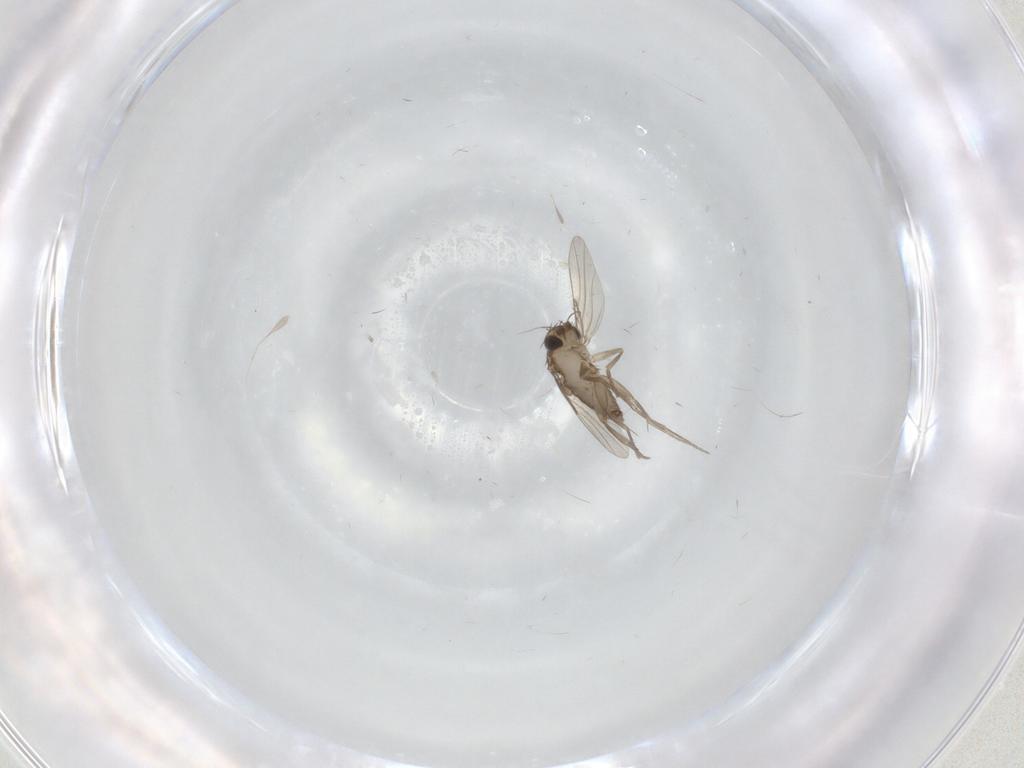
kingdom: Animalia
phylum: Arthropoda
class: Insecta
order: Diptera
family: Phoridae
